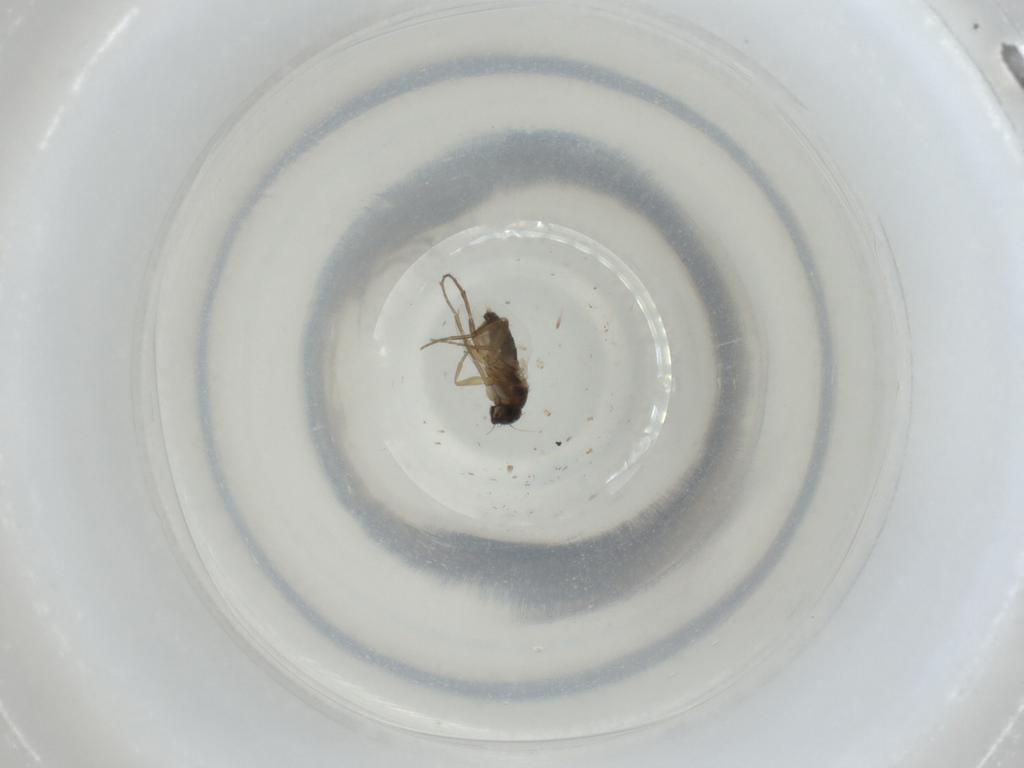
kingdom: Animalia
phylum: Arthropoda
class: Insecta
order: Diptera
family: Phoridae
